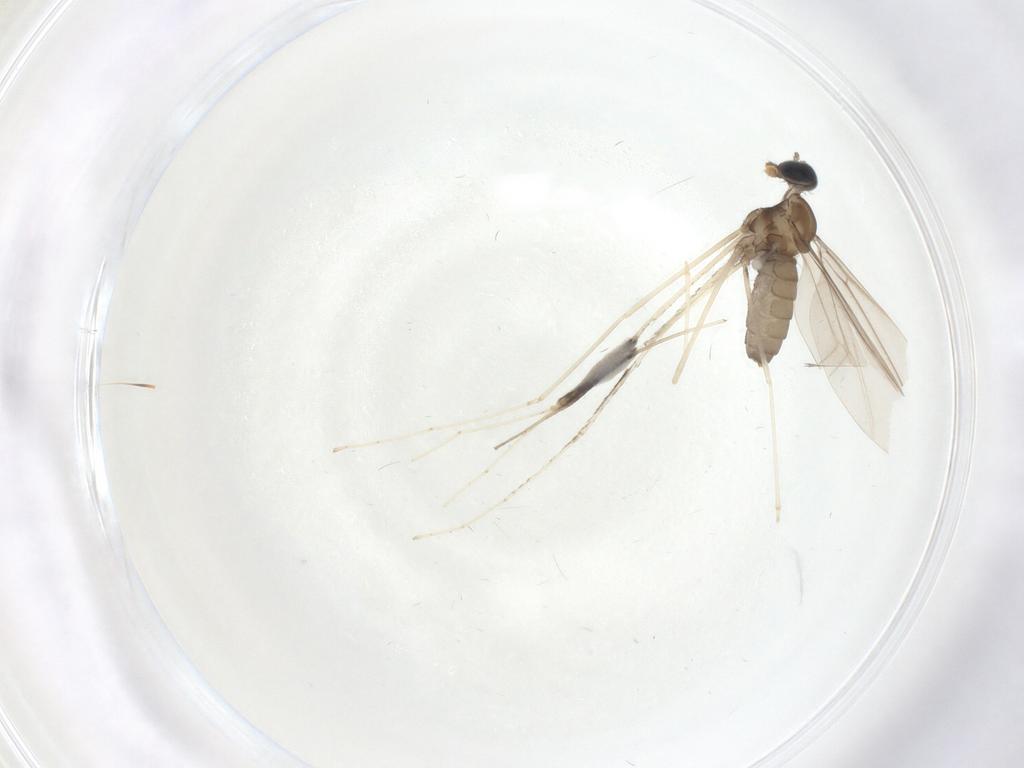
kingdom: Animalia
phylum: Arthropoda
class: Insecta
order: Diptera
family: Cecidomyiidae
